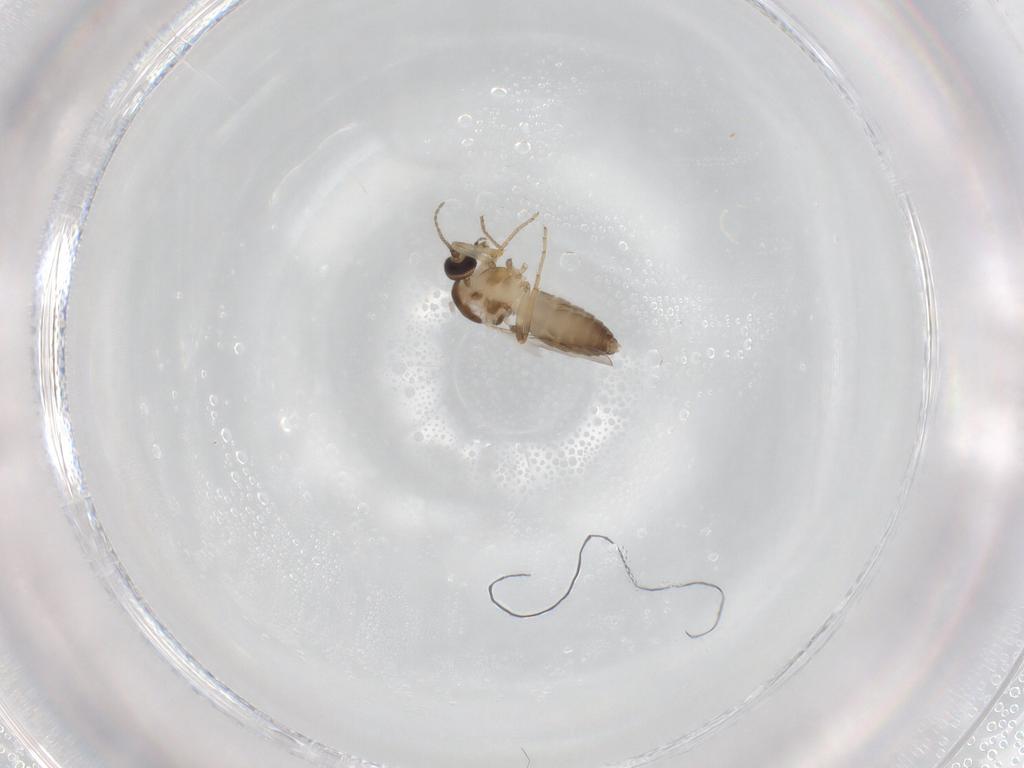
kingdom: Animalia
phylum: Arthropoda
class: Insecta
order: Diptera
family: Ceratopogonidae
